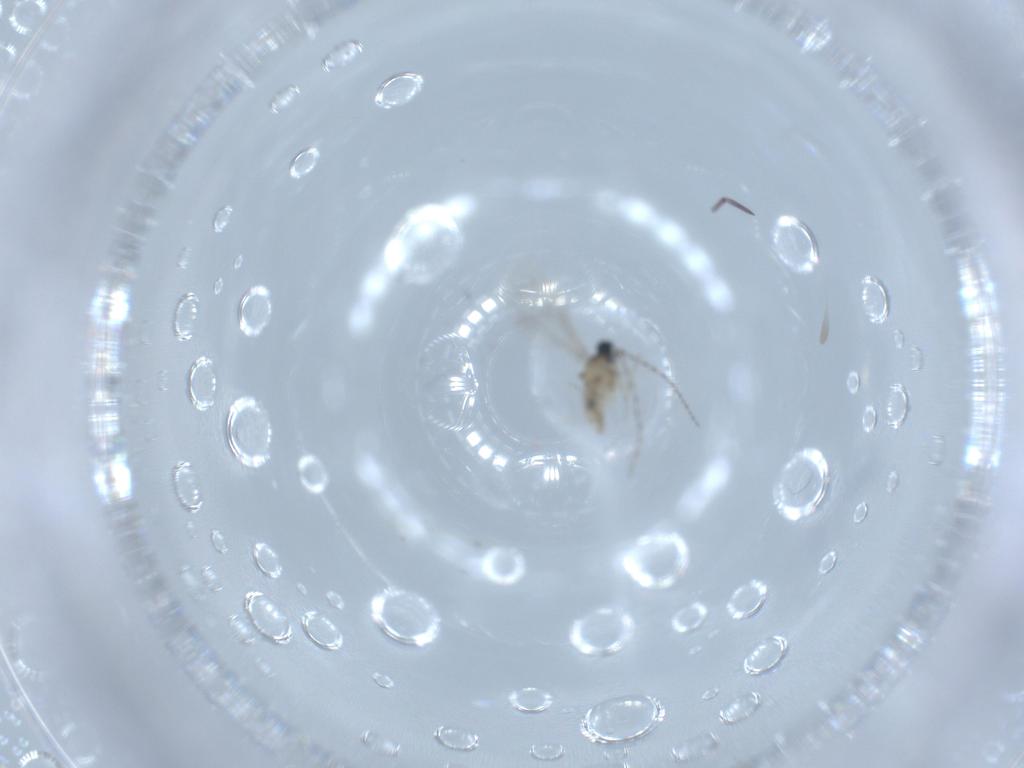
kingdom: Animalia
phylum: Arthropoda
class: Insecta
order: Diptera
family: Cecidomyiidae
